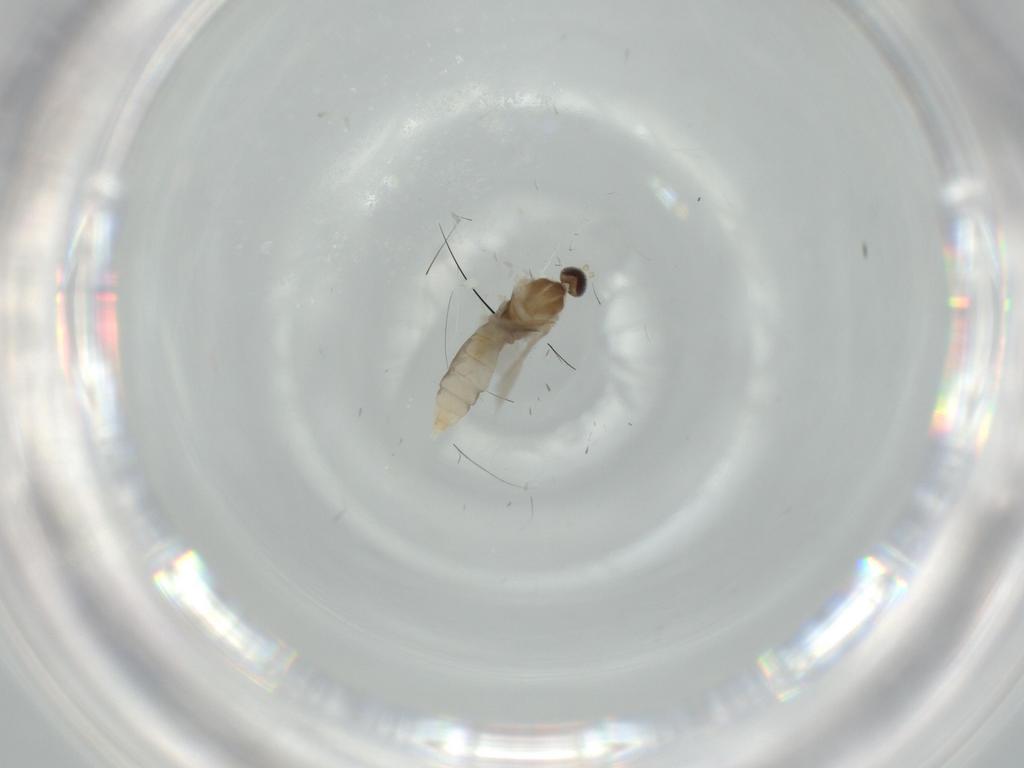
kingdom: Animalia
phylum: Arthropoda
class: Insecta
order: Diptera
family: Cecidomyiidae
